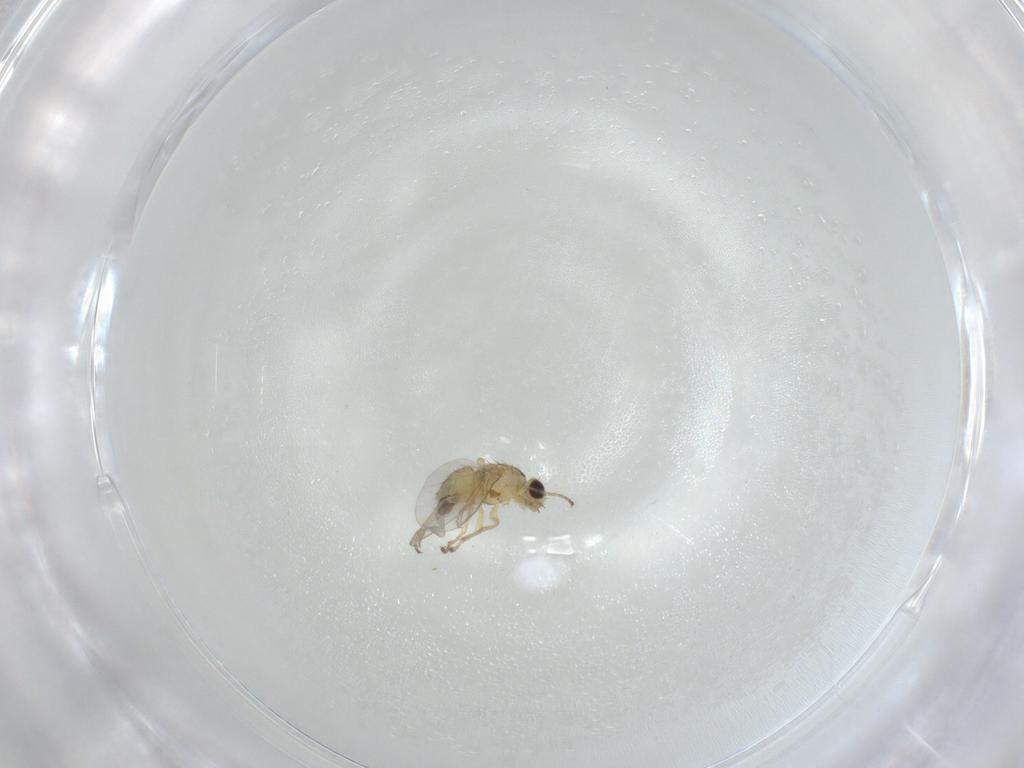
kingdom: Animalia
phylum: Arthropoda
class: Insecta
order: Diptera
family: Agromyzidae
